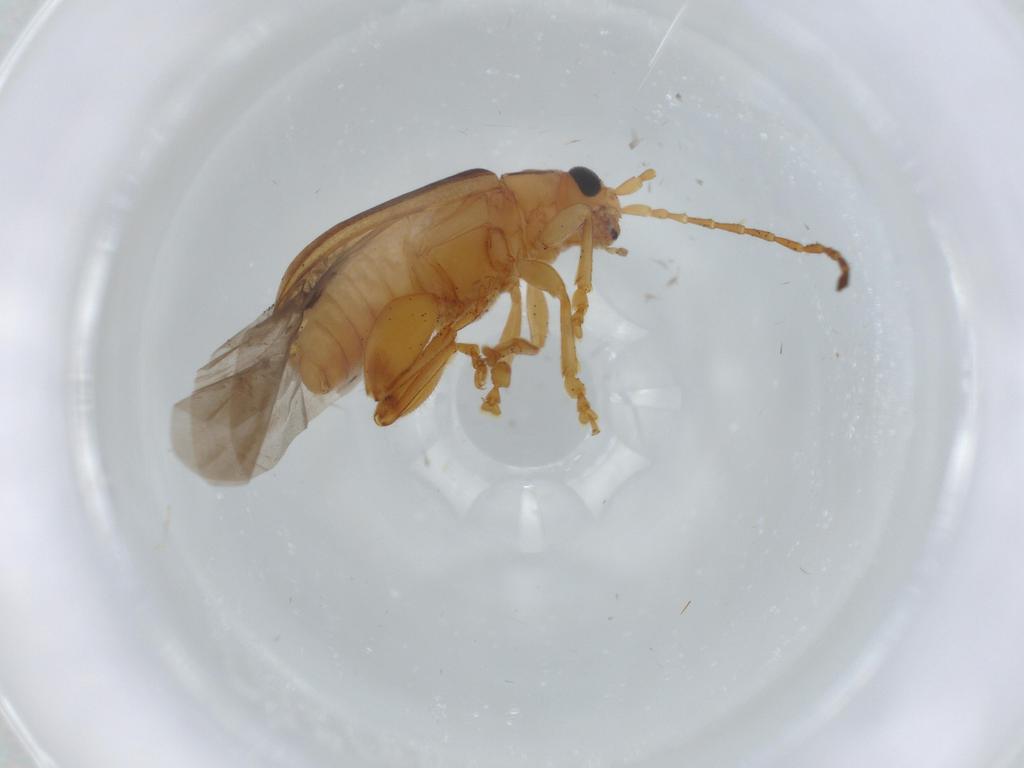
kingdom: Animalia
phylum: Arthropoda
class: Insecta
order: Coleoptera
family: Chrysomelidae
